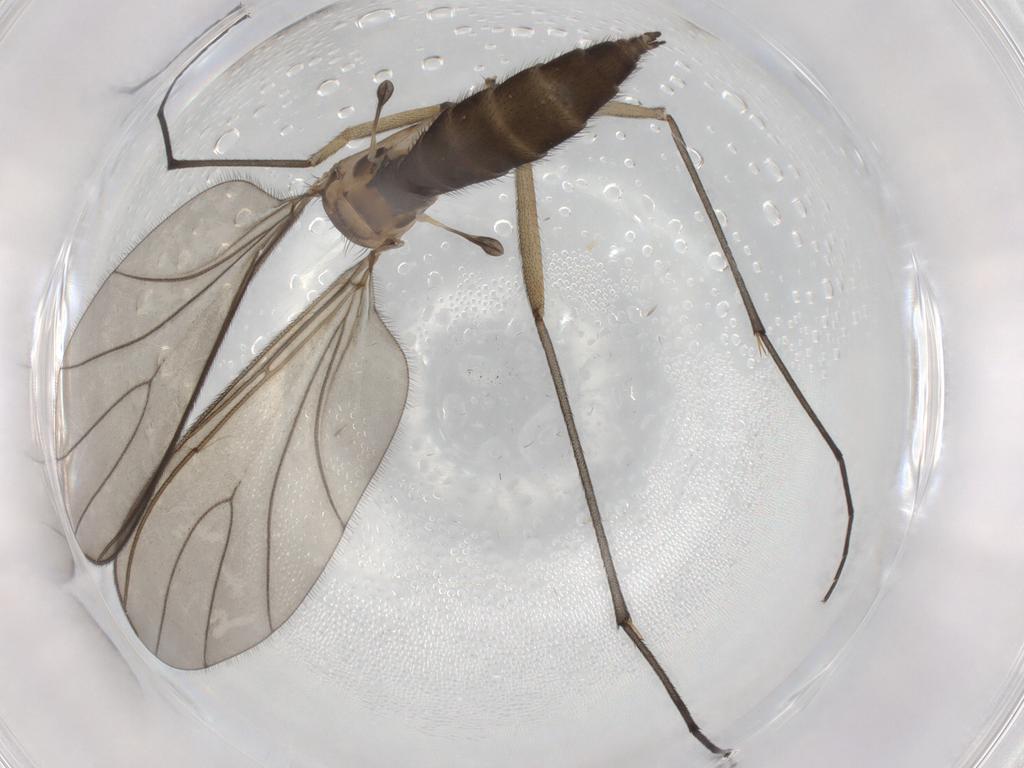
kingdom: Animalia
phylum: Arthropoda
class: Insecta
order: Diptera
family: Sciaridae
